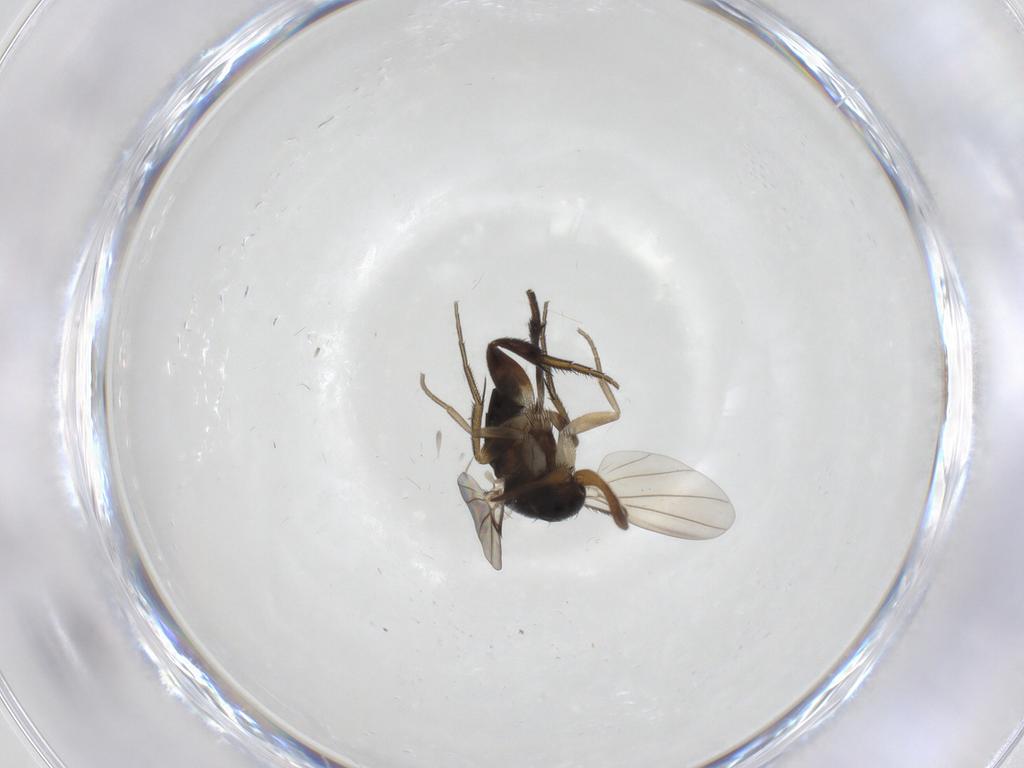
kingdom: Animalia
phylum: Arthropoda
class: Insecta
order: Diptera
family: Phoridae
